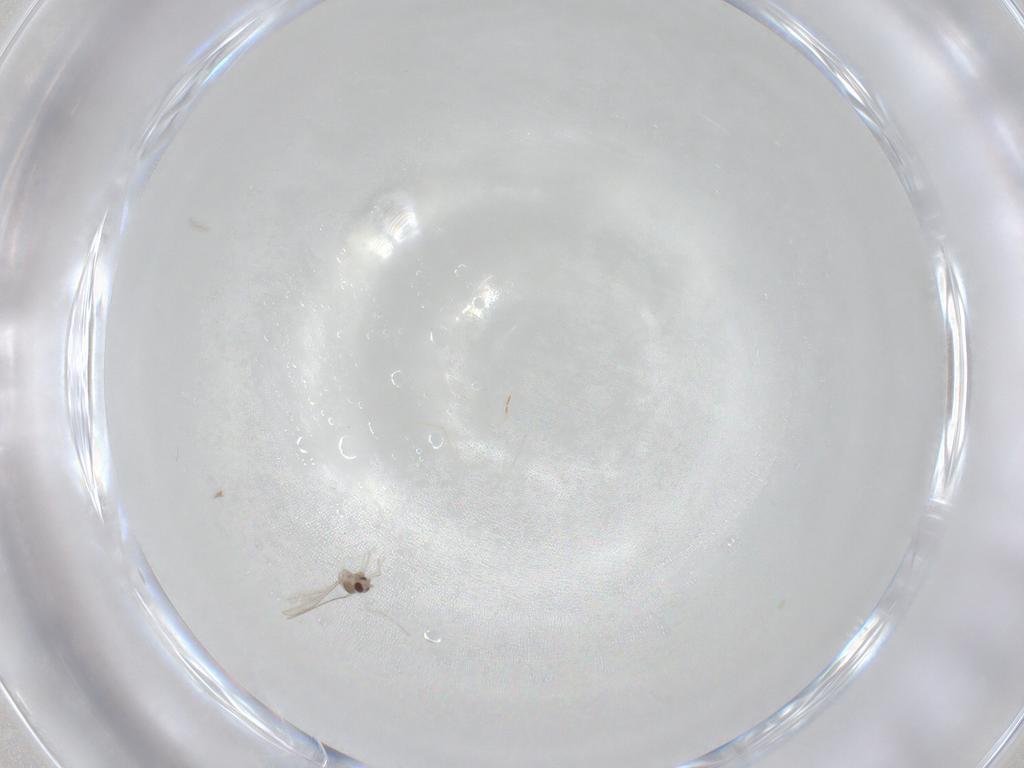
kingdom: Animalia
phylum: Arthropoda
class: Insecta
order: Diptera
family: Cecidomyiidae
